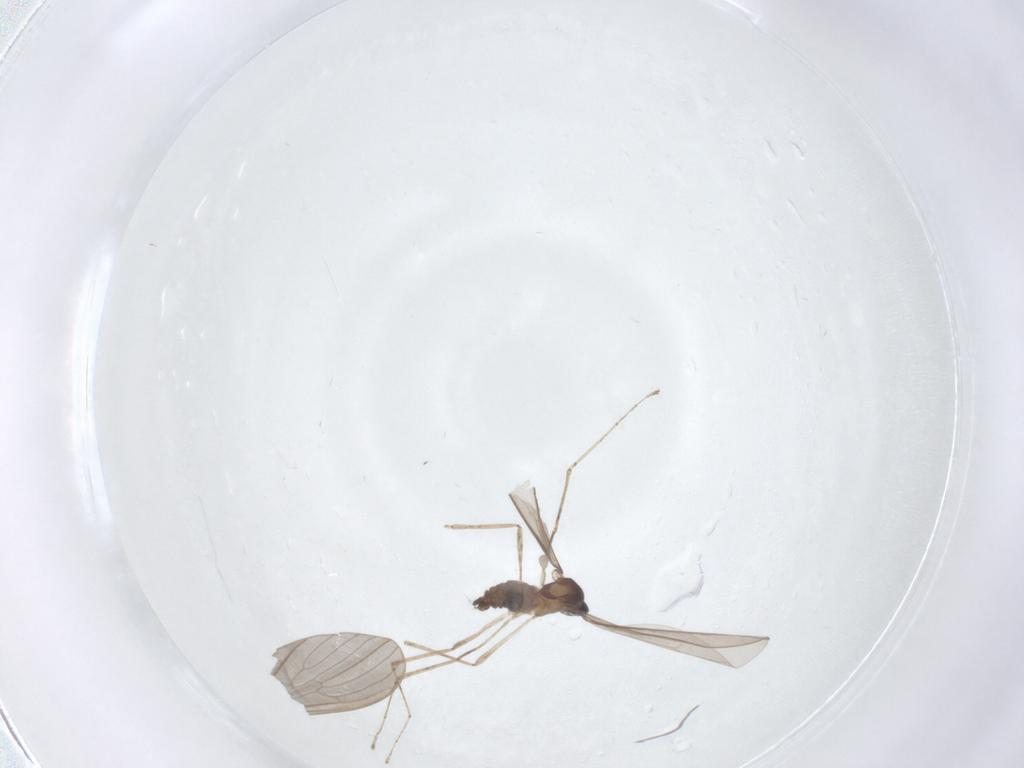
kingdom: Animalia
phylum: Arthropoda
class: Insecta
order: Diptera
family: Cecidomyiidae
